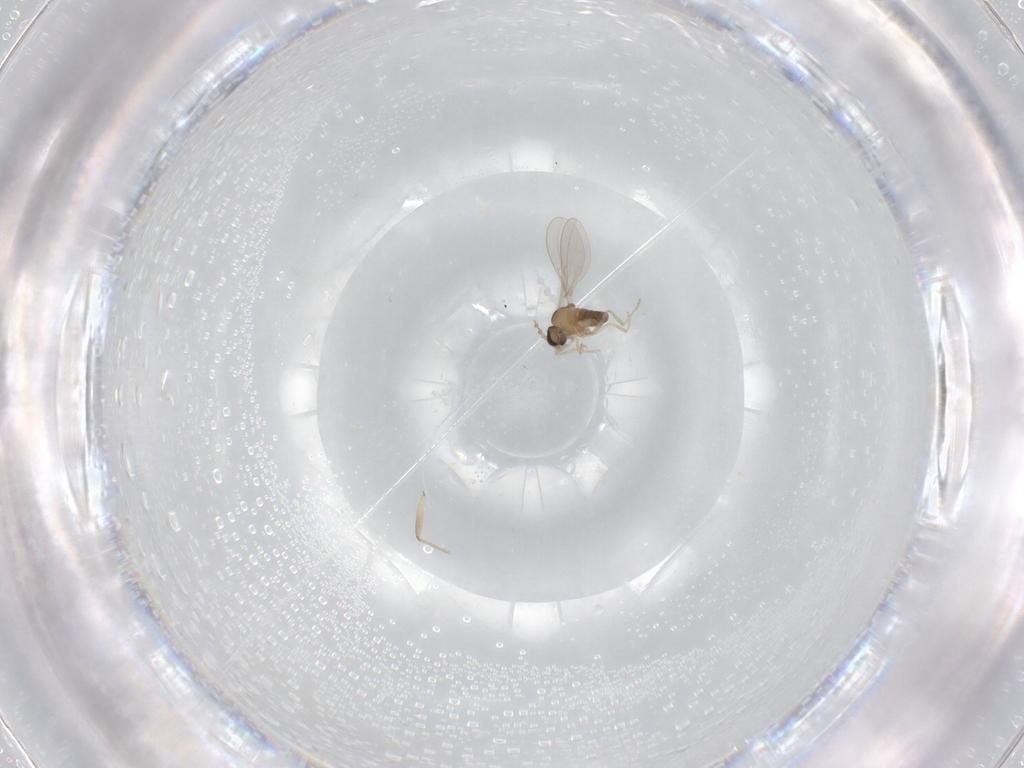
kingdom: Animalia
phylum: Arthropoda
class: Insecta
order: Diptera
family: Cecidomyiidae
